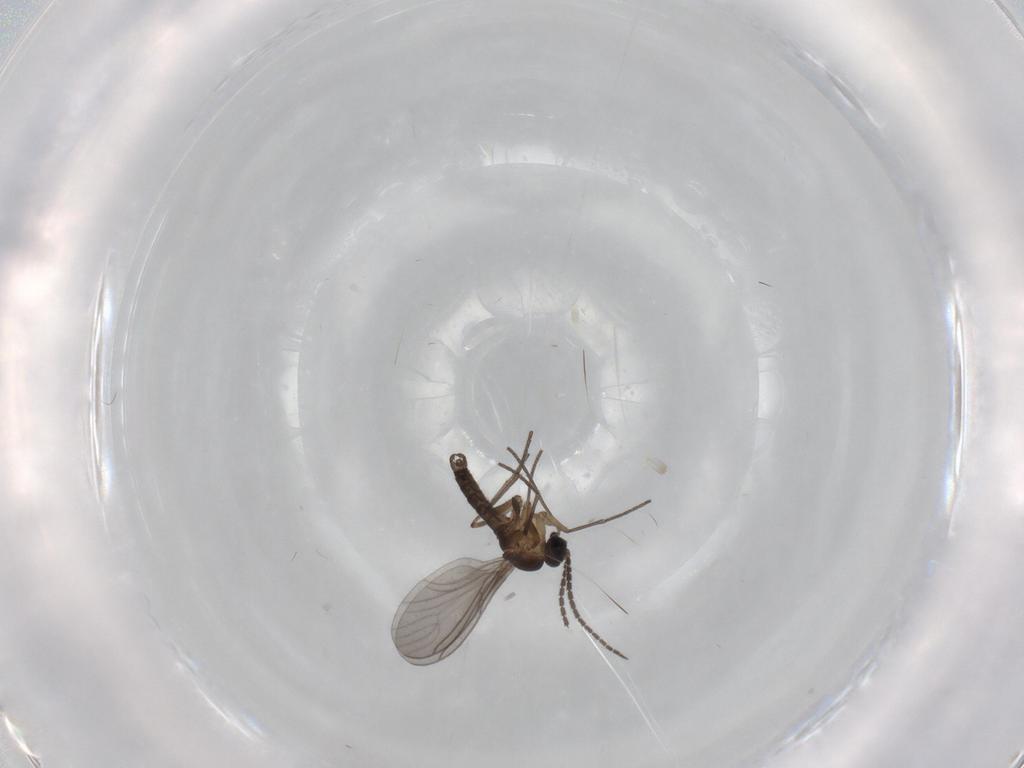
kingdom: Animalia
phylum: Arthropoda
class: Insecta
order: Diptera
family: Sciaridae
